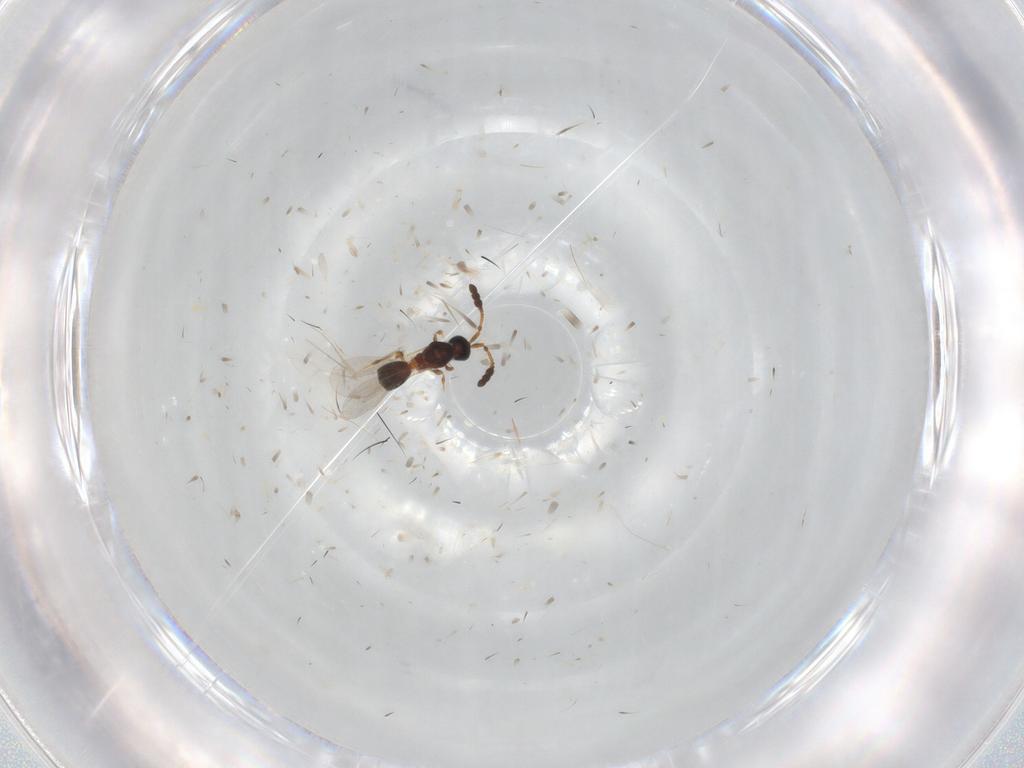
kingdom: Animalia
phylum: Arthropoda
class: Insecta
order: Hymenoptera
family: Diapriidae
